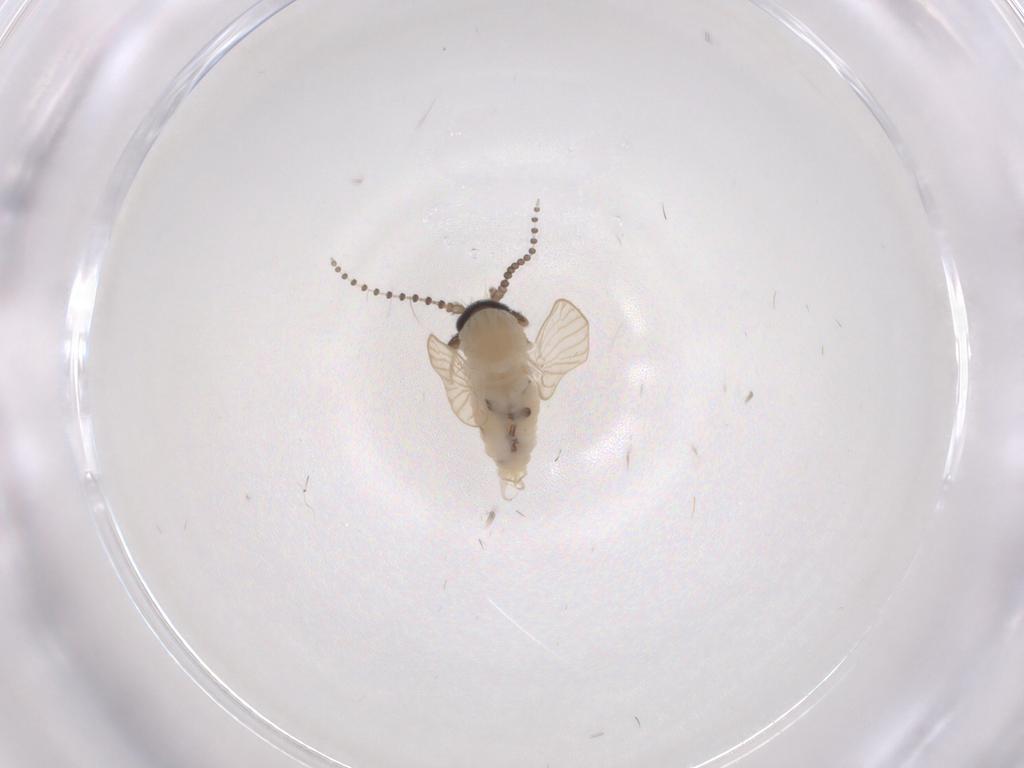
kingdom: Animalia
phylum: Arthropoda
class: Insecta
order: Diptera
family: Psychodidae
